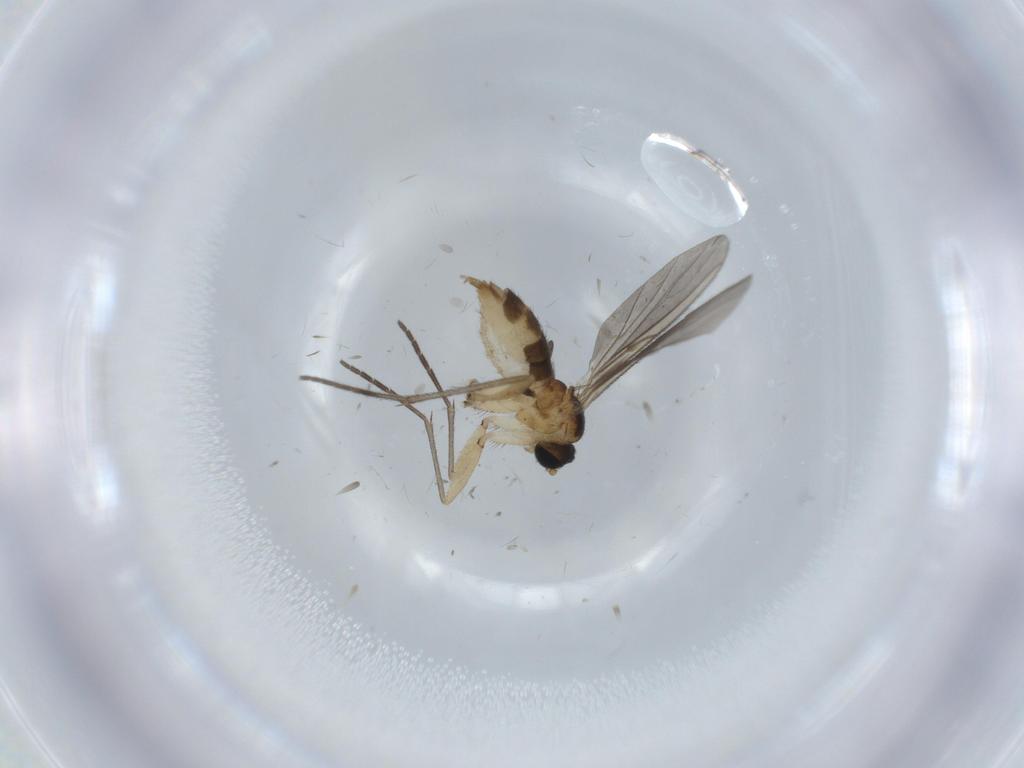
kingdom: Animalia
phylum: Arthropoda
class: Insecta
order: Diptera
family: Sciaridae
